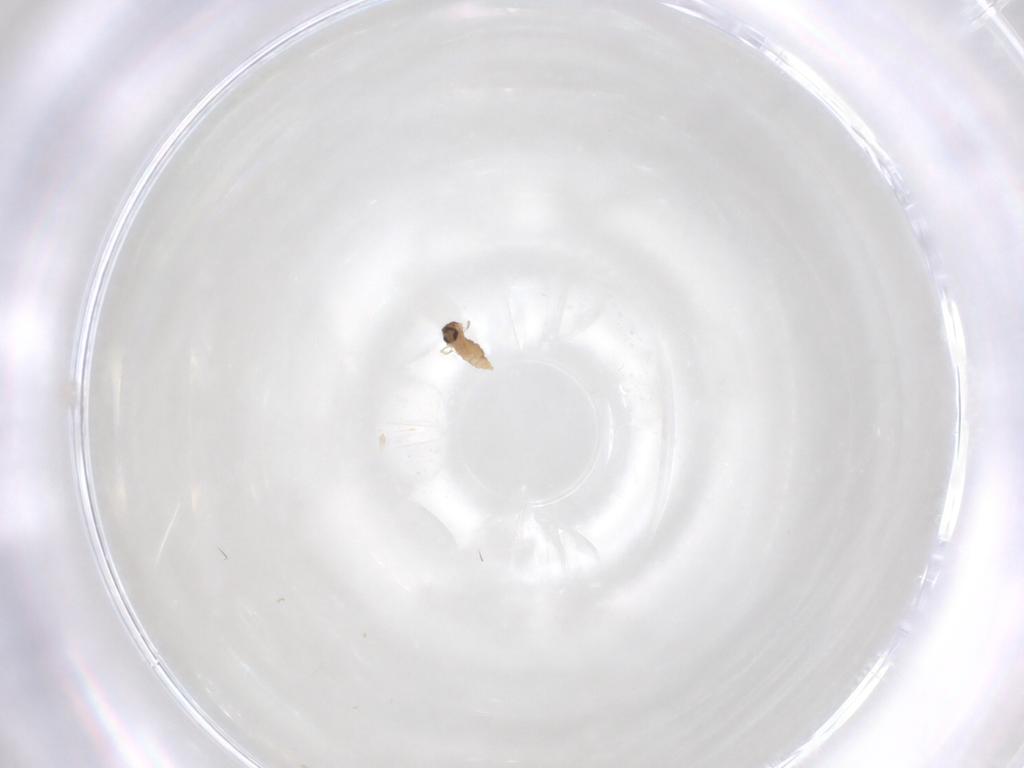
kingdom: Animalia
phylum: Arthropoda
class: Insecta
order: Diptera
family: Cecidomyiidae
